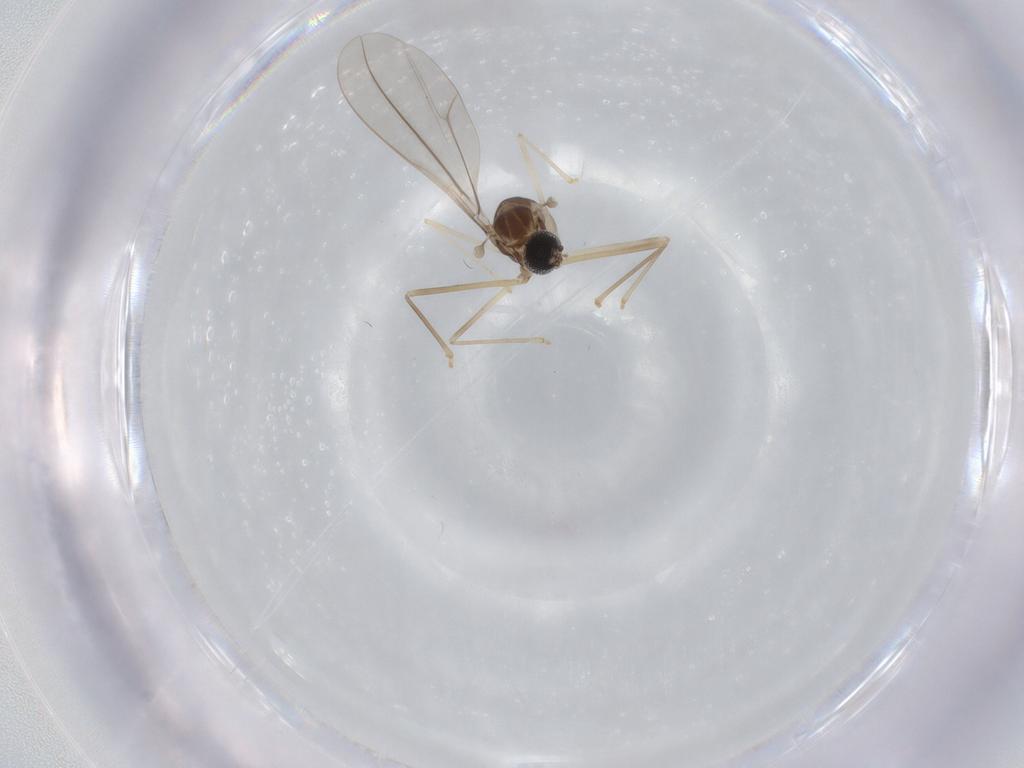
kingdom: Animalia
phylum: Arthropoda
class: Insecta
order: Diptera
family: Cecidomyiidae
